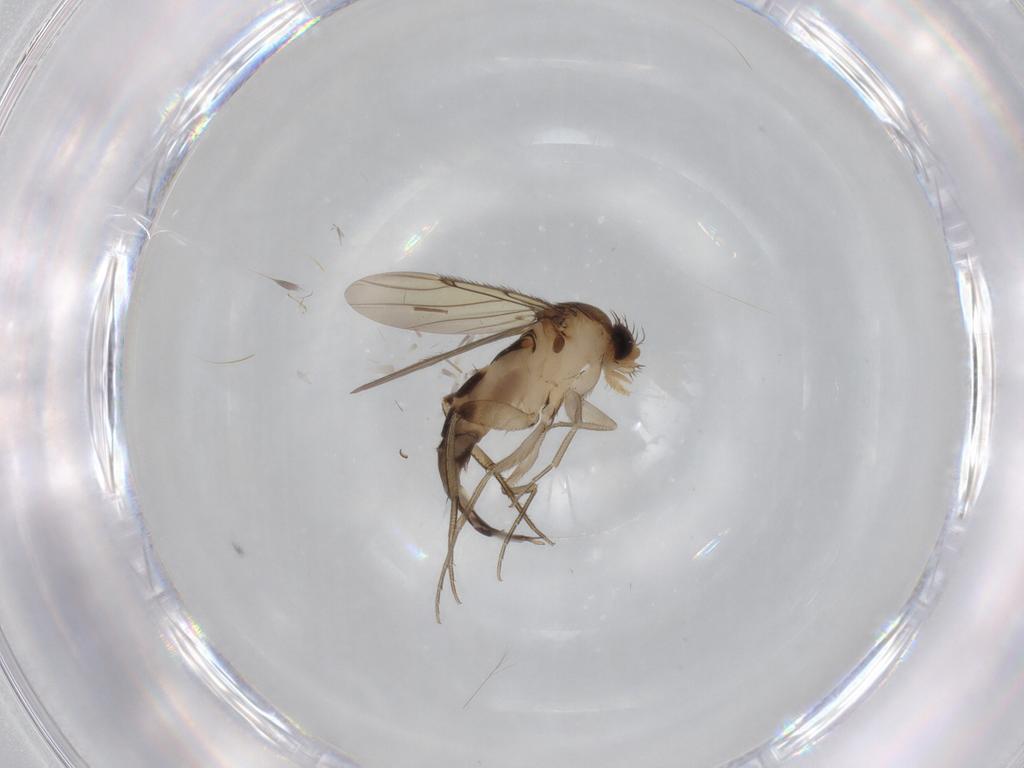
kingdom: Animalia
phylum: Arthropoda
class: Insecta
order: Diptera
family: Phoridae
